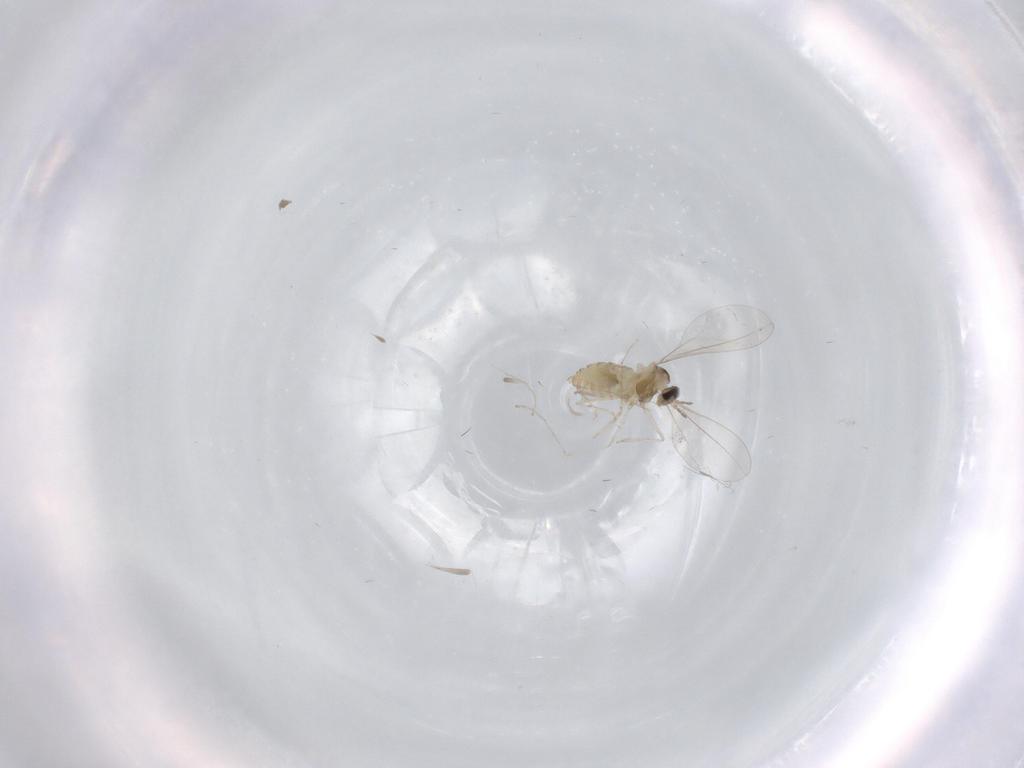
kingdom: Animalia
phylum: Arthropoda
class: Insecta
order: Diptera
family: Cecidomyiidae
